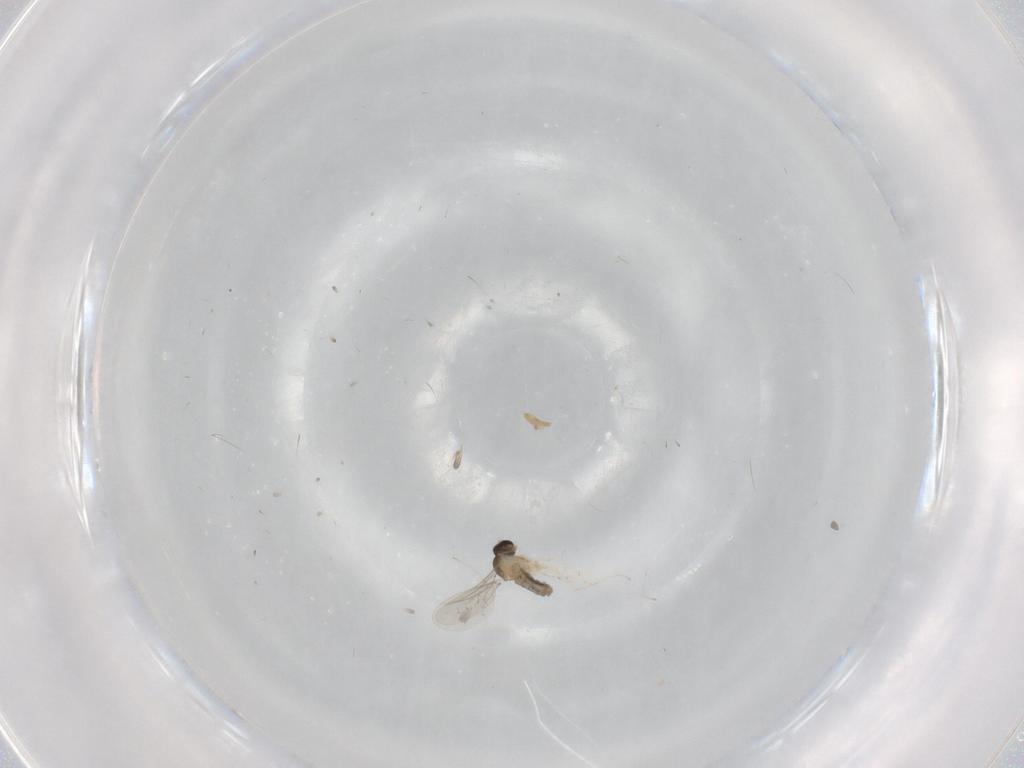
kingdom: Animalia
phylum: Arthropoda
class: Insecta
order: Diptera
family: Cecidomyiidae
